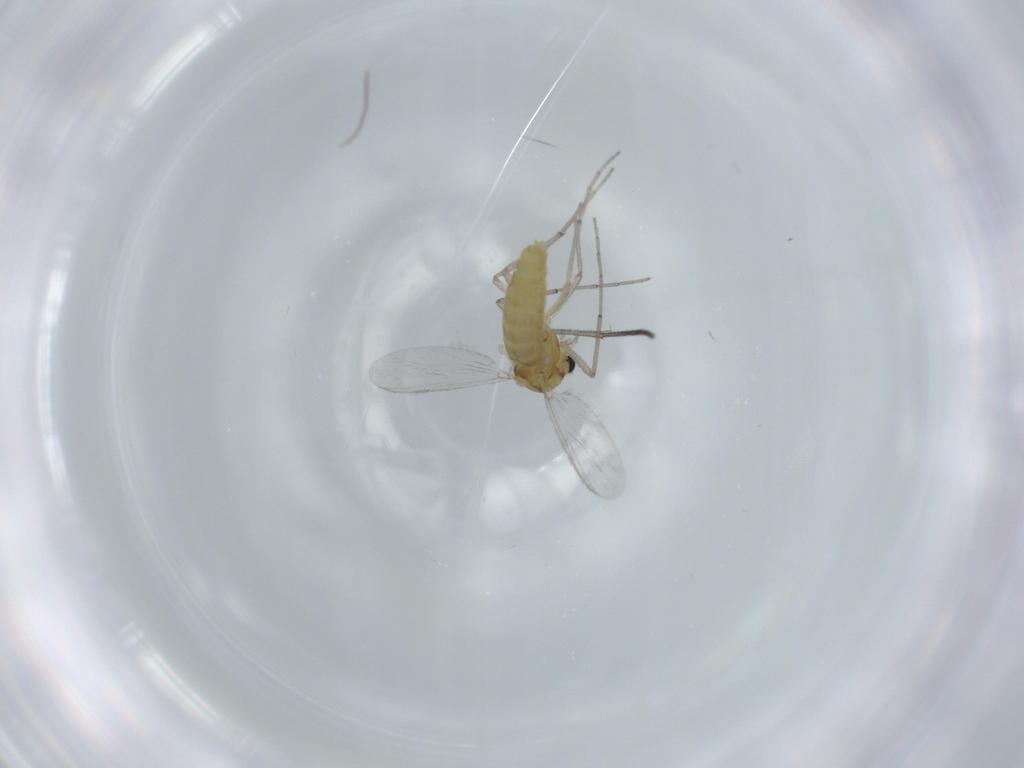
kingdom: Animalia
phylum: Arthropoda
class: Insecta
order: Diptera
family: Chironomidae
